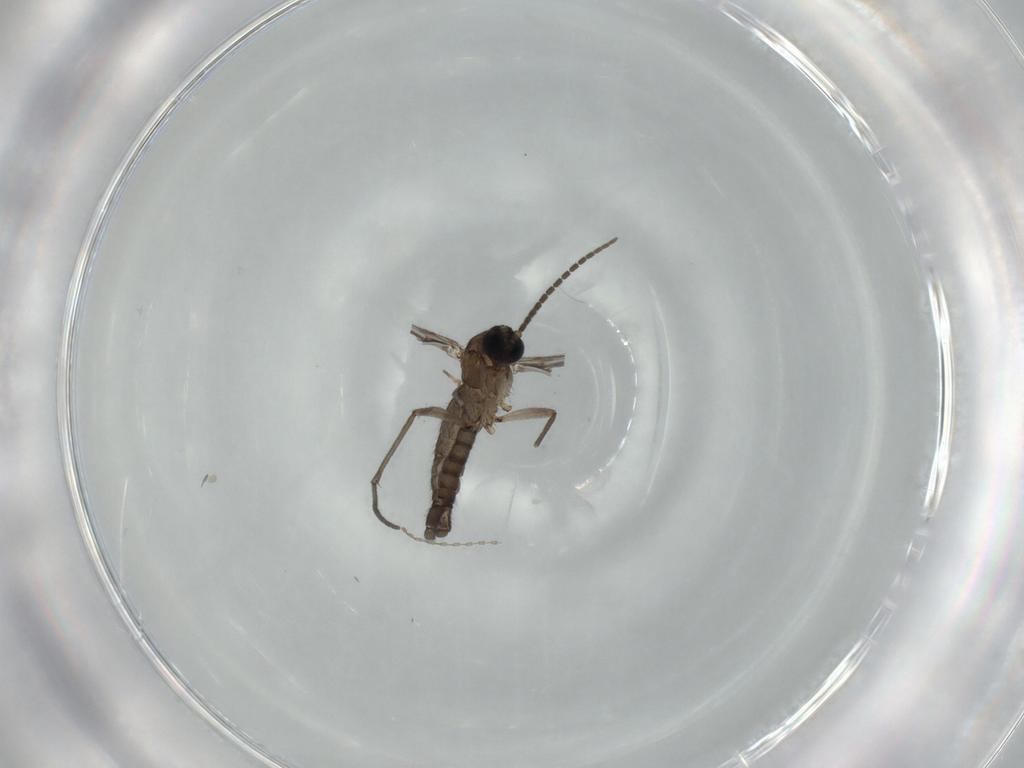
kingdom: Animalia
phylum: Arthropoda
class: Insecta
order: Diptera
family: Sciaridae
